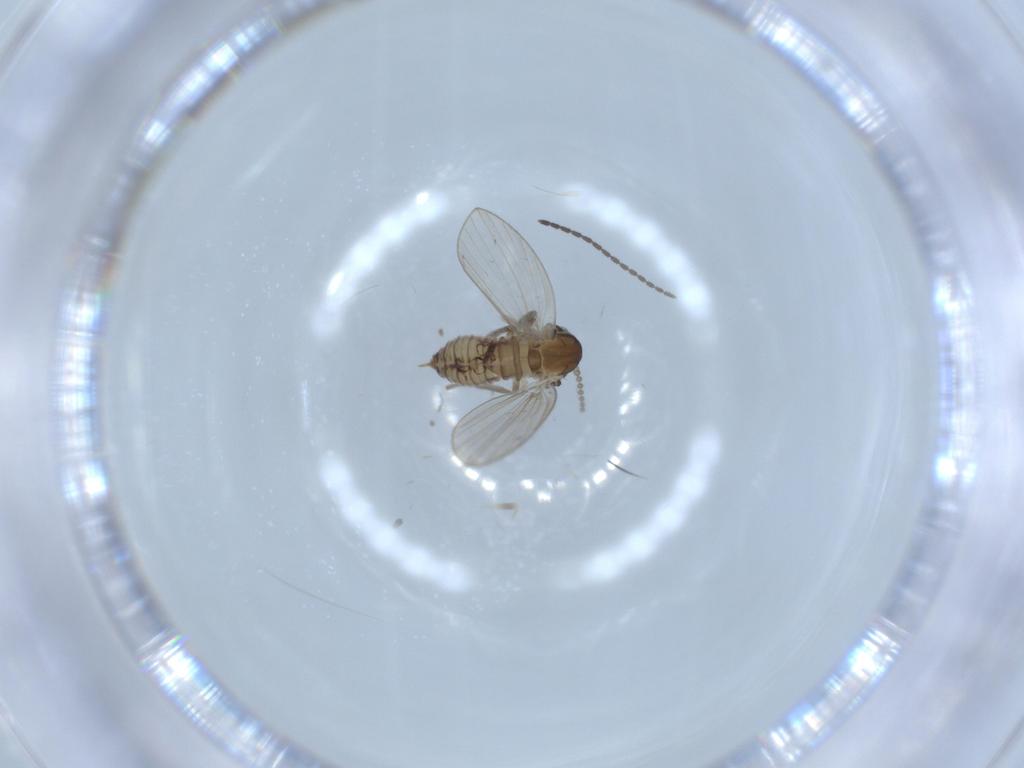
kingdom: Animalia
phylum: Arthropoda
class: Insecta
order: Diptera
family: Psychodidae
